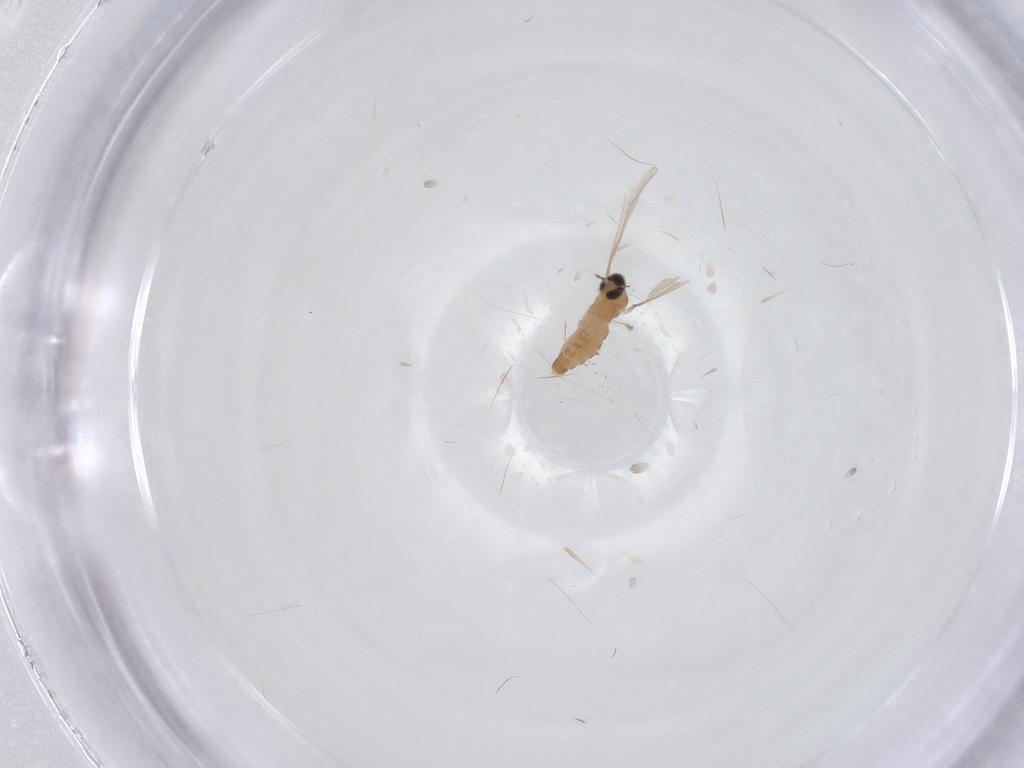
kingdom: Animalia
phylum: Arthropoda
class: Insecta
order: Diptera
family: Cecidomyiidae
